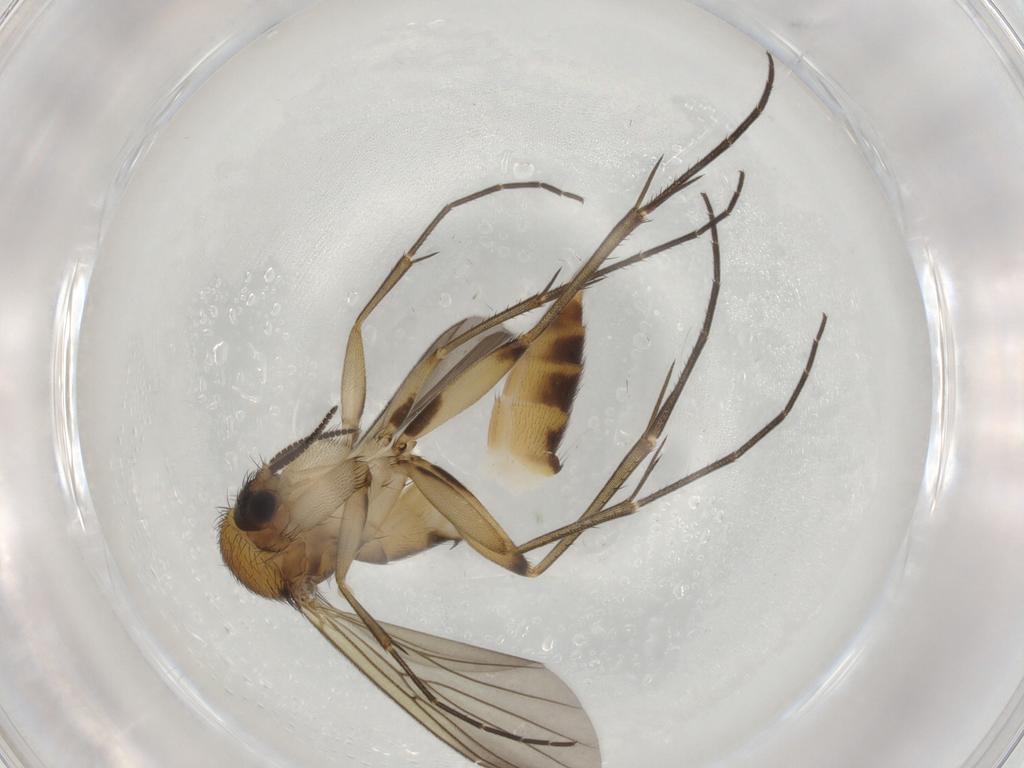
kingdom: Animalia
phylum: Arthropoda
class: Insecta
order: Diptera
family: Mycetophilidae
